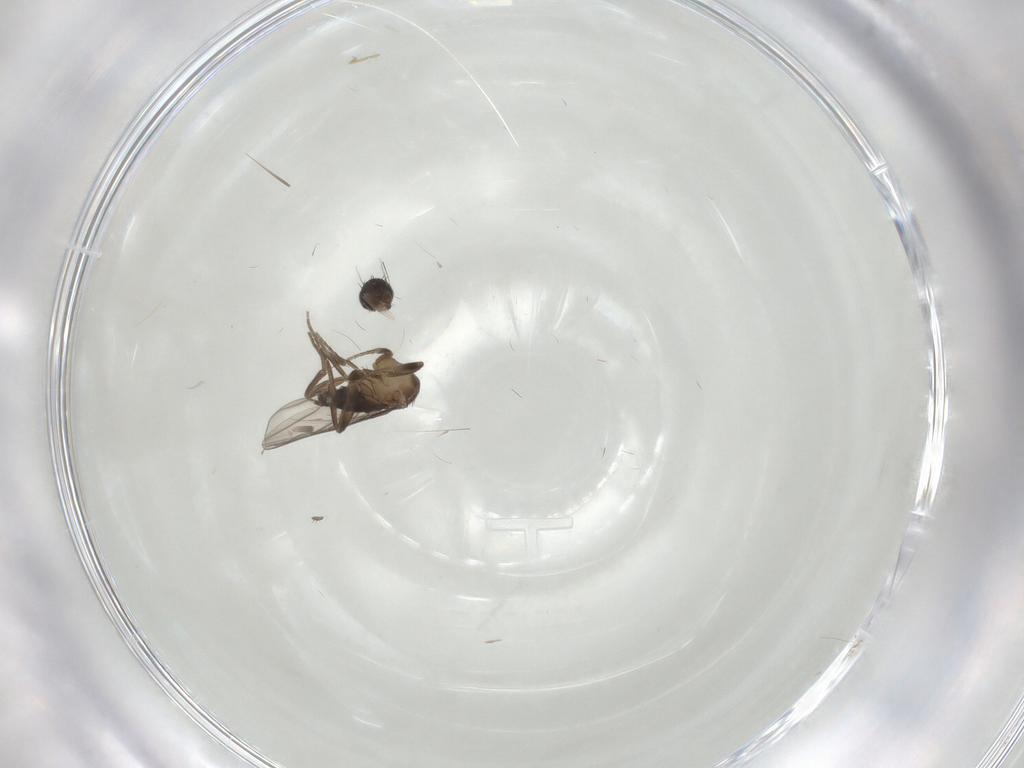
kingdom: Animalia
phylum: Arthropoda
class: Insecta
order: Diptera
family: Phoridae
